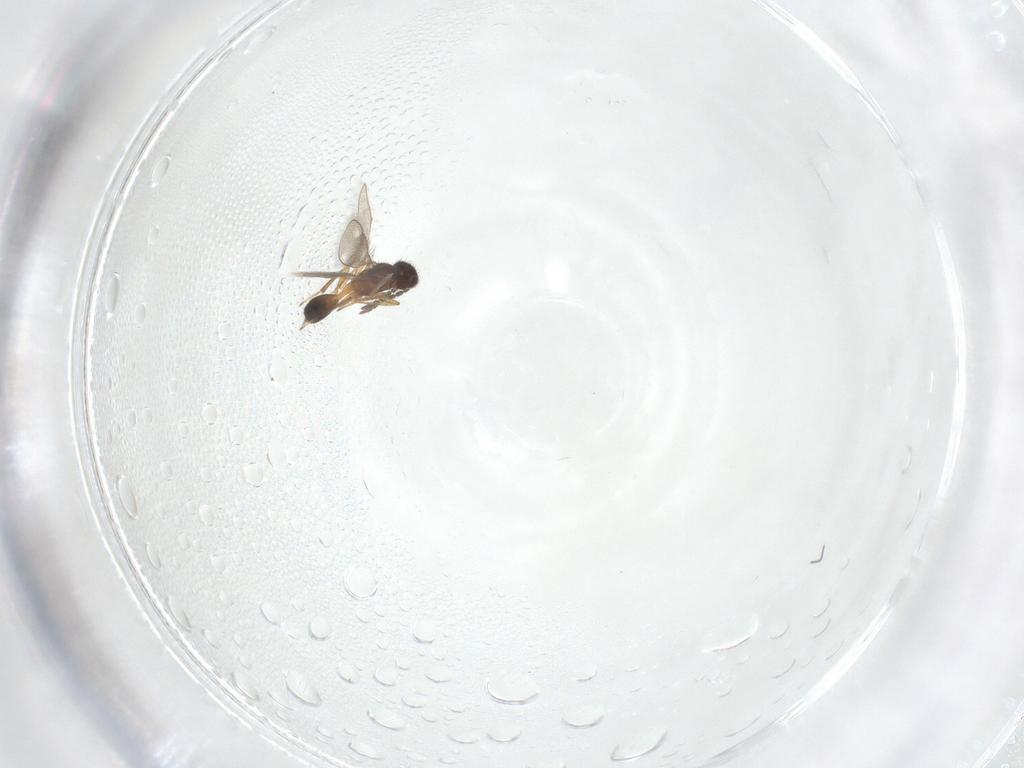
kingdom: Animalia
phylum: Arthropoda
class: Insecta
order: Hymenoptera
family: Pteromalidae
